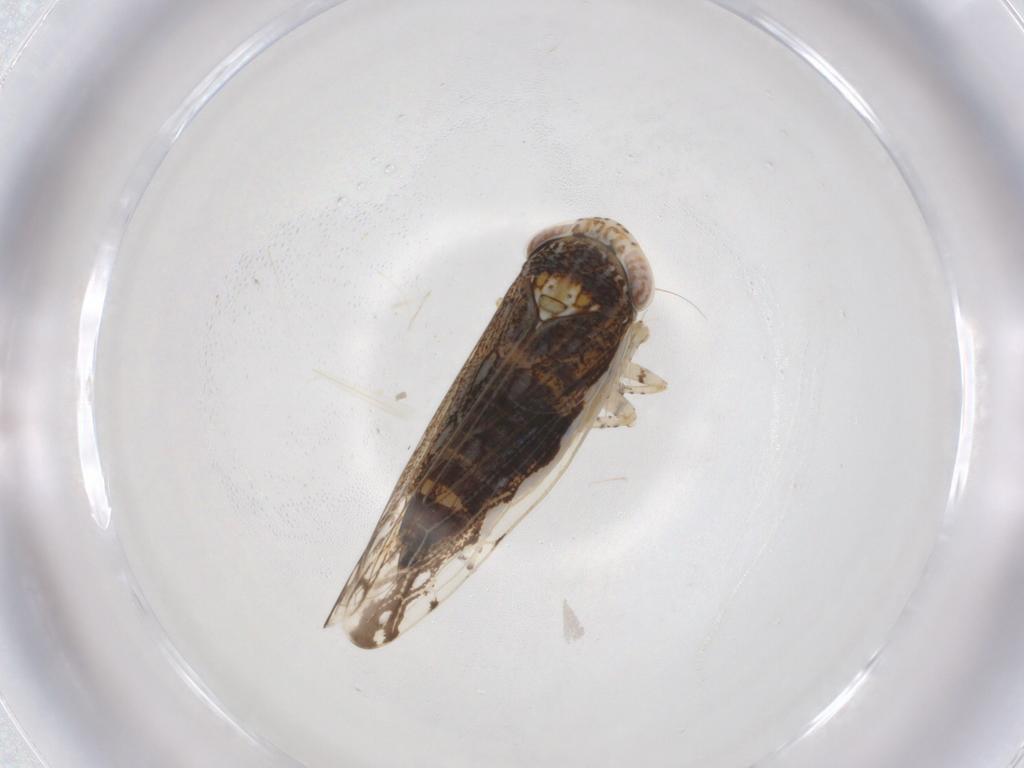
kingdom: Animalia
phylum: Arthropoda
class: Insecta
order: Hemiptera
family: Cicadellidae
